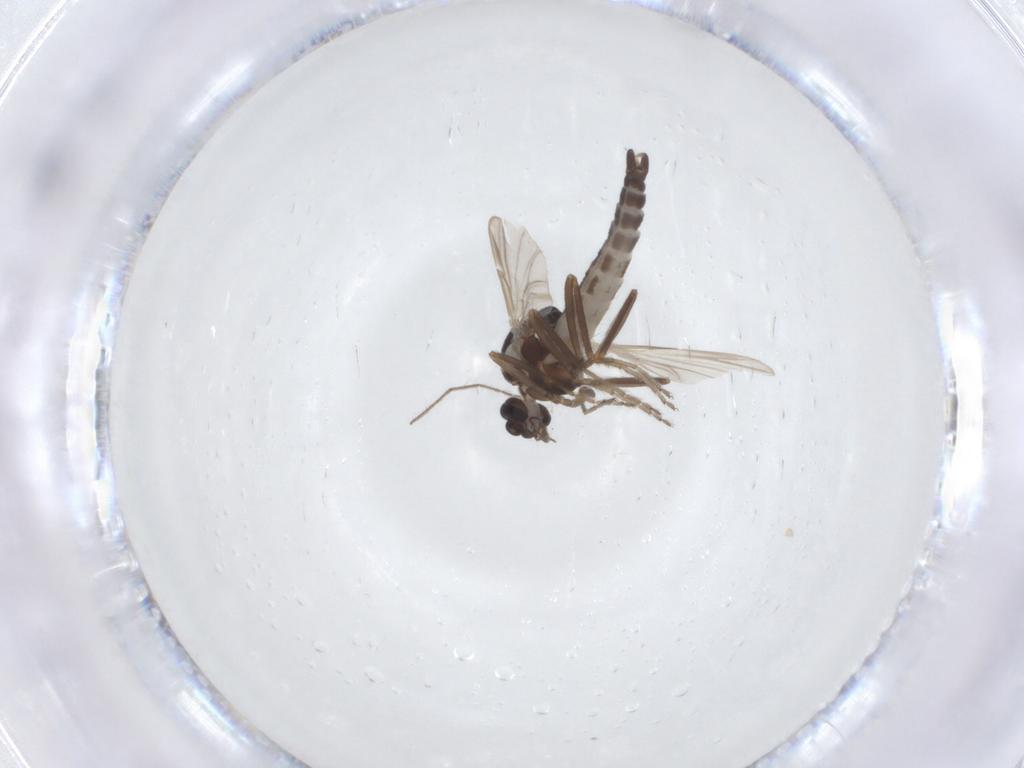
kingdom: Animalia
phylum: Arthropoda
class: Insecta
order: Diptera
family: Ceratopogonidae
